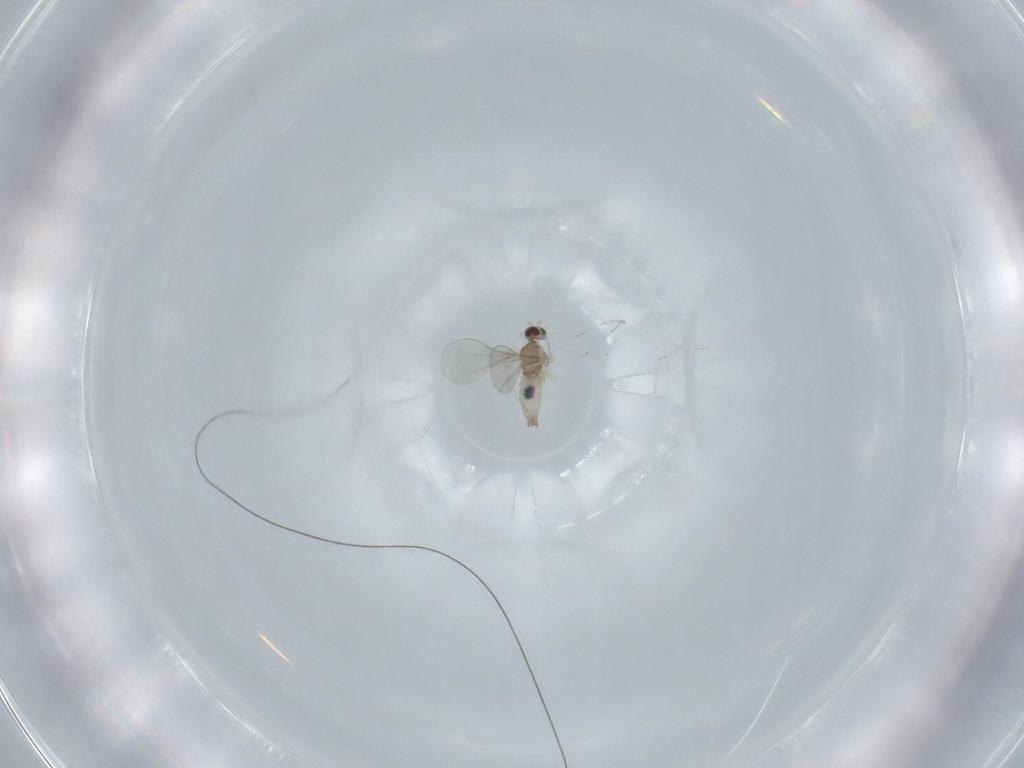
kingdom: Animalia
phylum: Arthropoda
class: Insecta
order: Diptera
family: Cecidomyiidae
